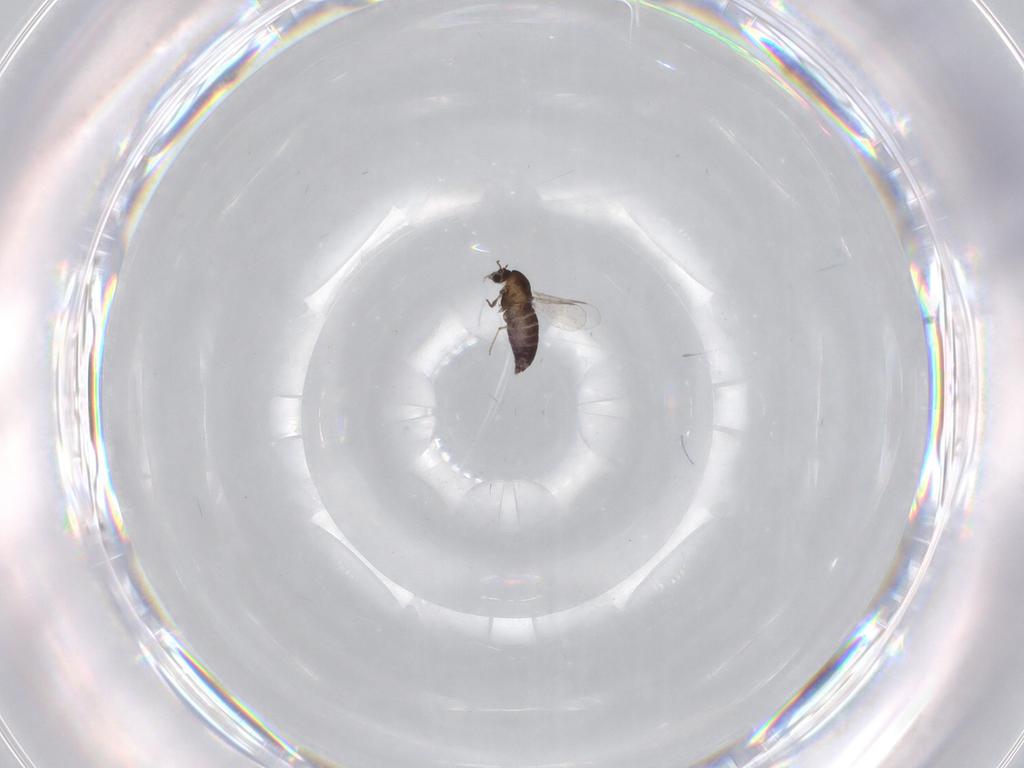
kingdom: Animalia
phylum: Arthropoda
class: Insecta
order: Diptera
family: Chironomidae
